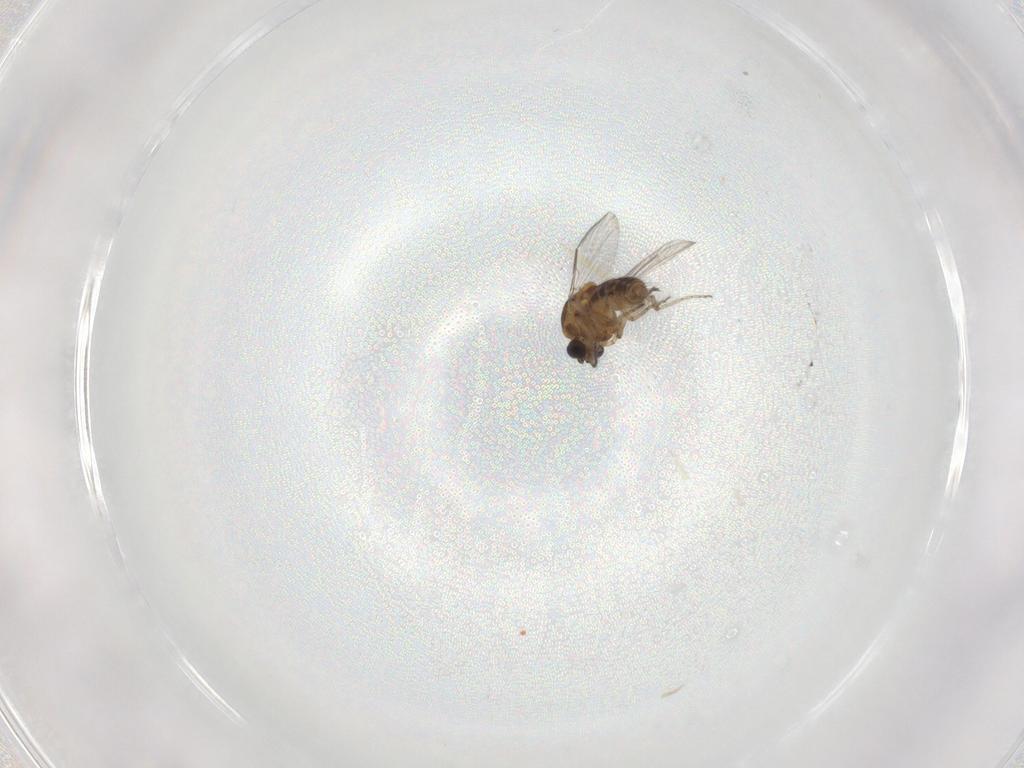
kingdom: Animalia
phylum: Arthropoda
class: Insecta
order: Diptera
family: Ceratopogonidae
